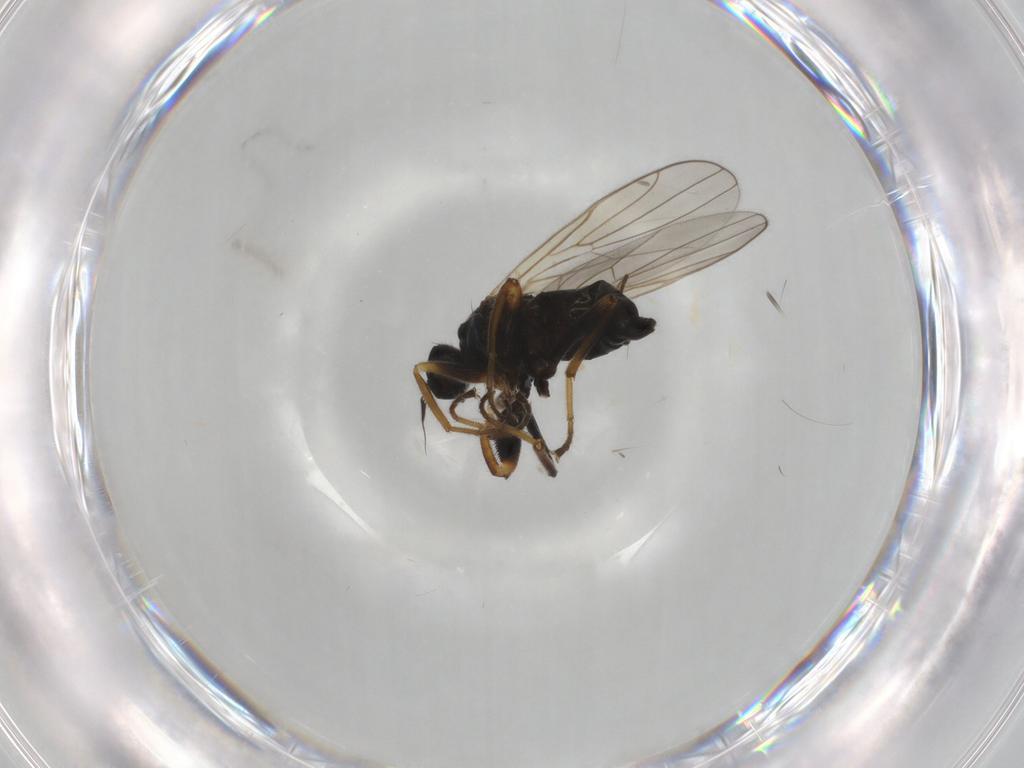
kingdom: Animalia
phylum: Arthropoda
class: Insecta
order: Diptera
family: Chironomidae
